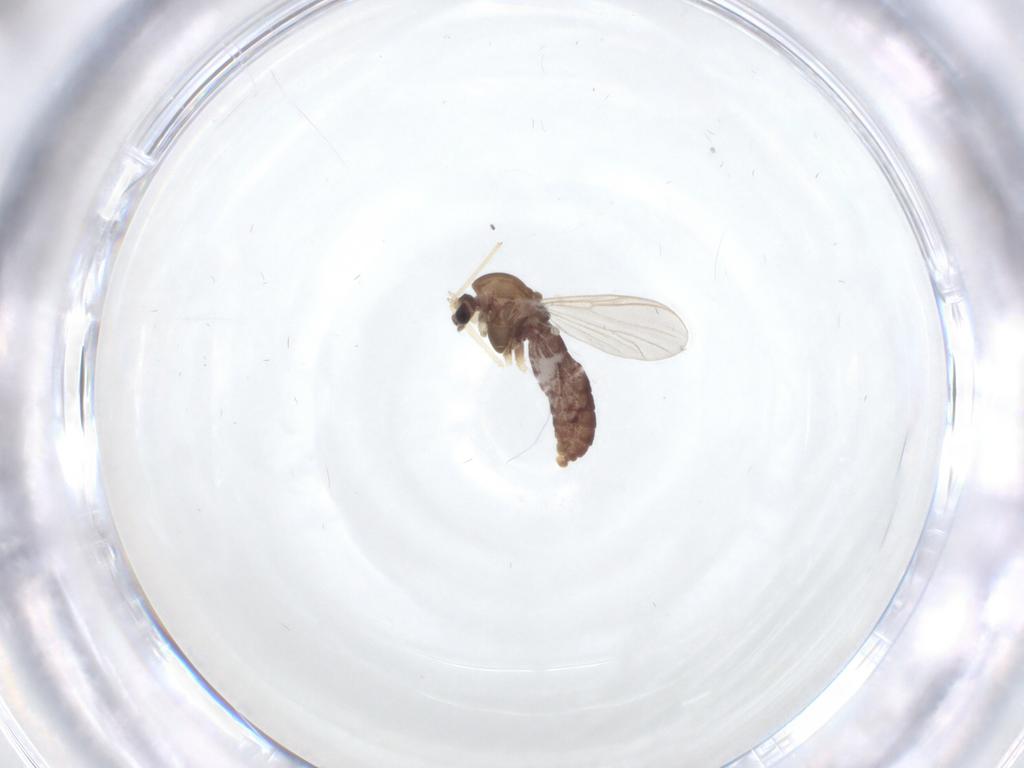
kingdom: Animalia
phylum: Arthropoda
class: Insecta
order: Diptera
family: Chironomidae
